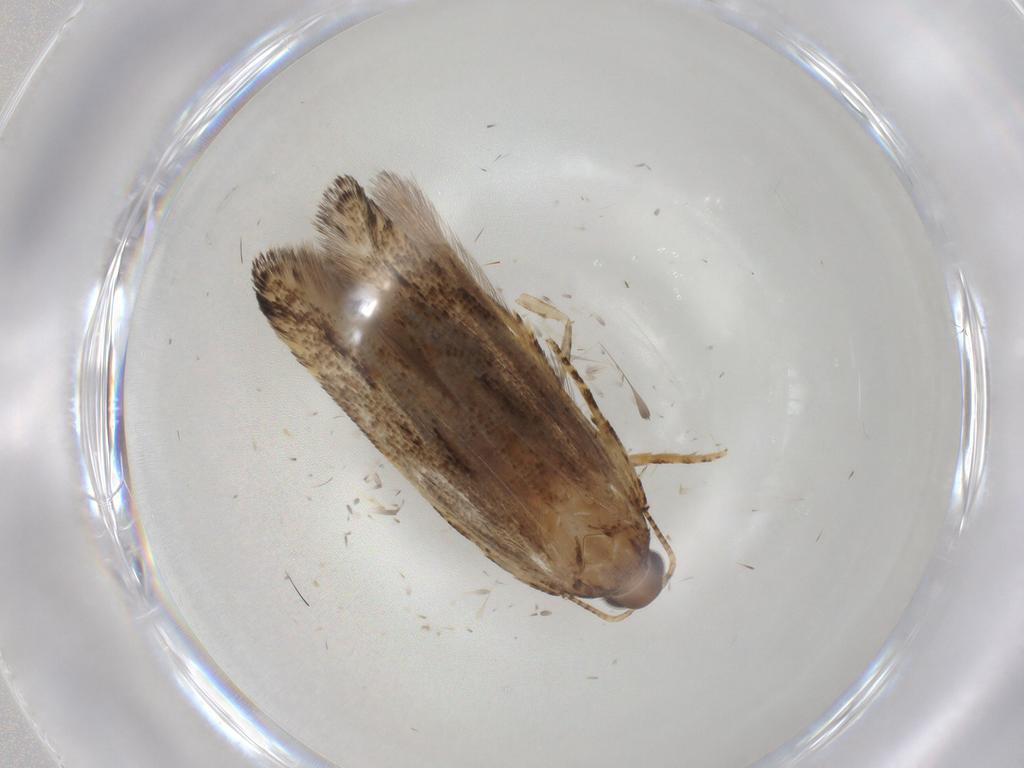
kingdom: Animalia
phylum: Arthropoda
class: Insecta
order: Lepidoptera
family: Gelechiidae
